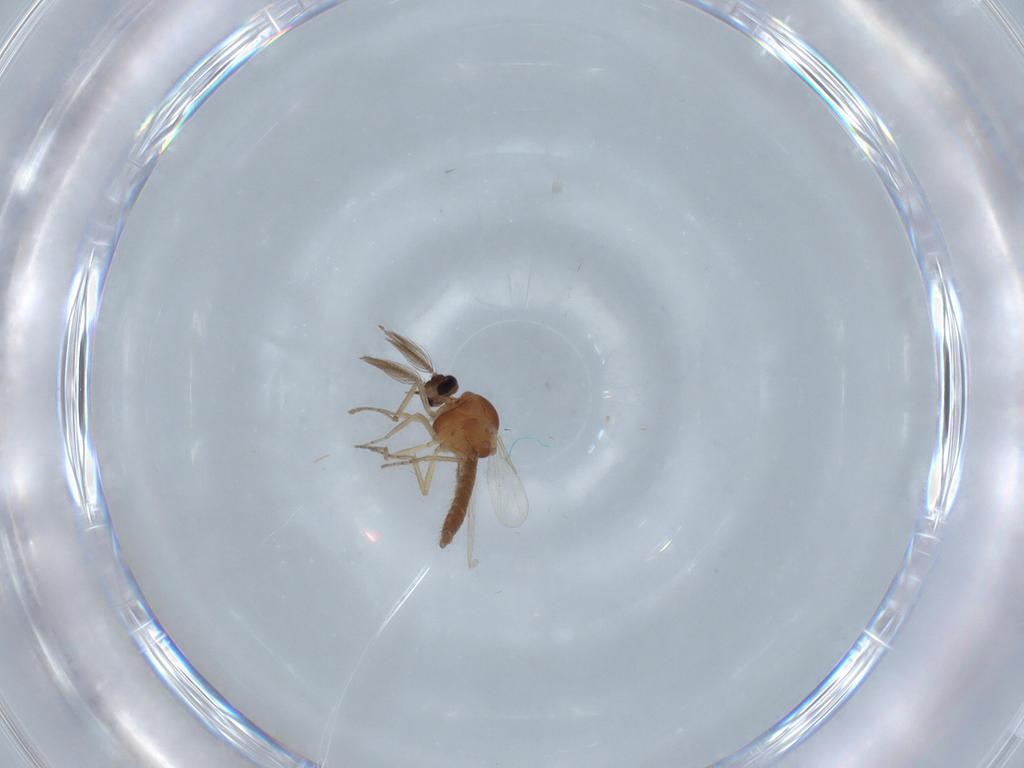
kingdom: Animalia
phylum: Arthropoda
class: Insecta
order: Diptera
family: Ceratopogonidae
